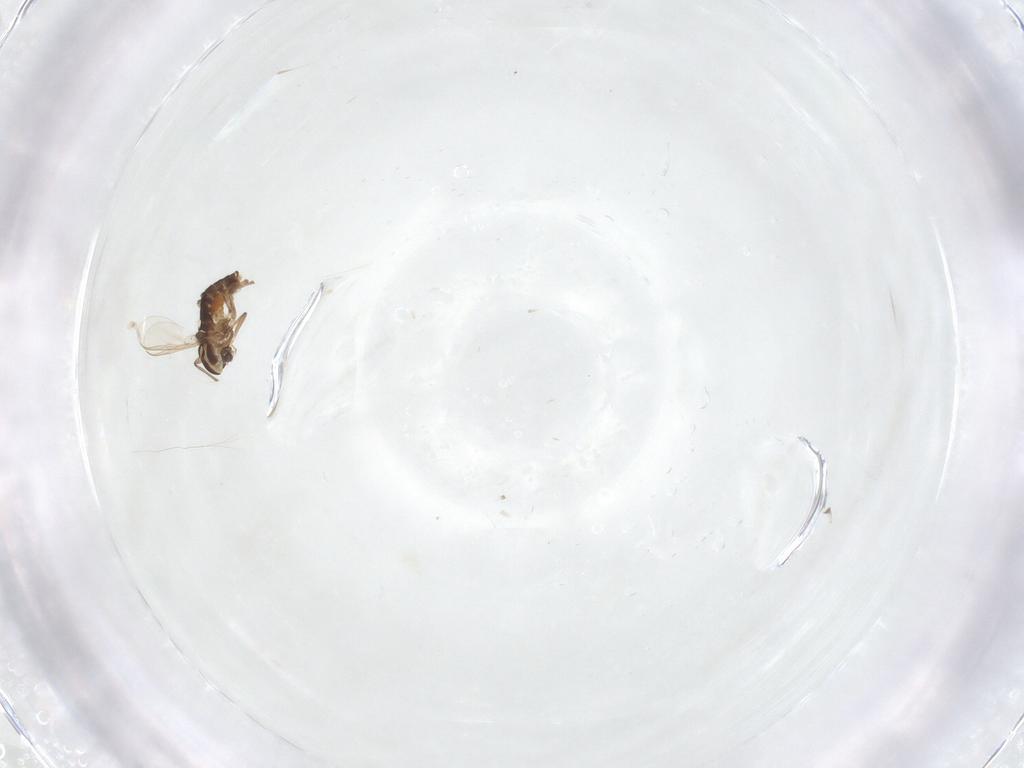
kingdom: Animalia
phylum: Arthropoda
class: Insecta
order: Diptera
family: Chironomidae
